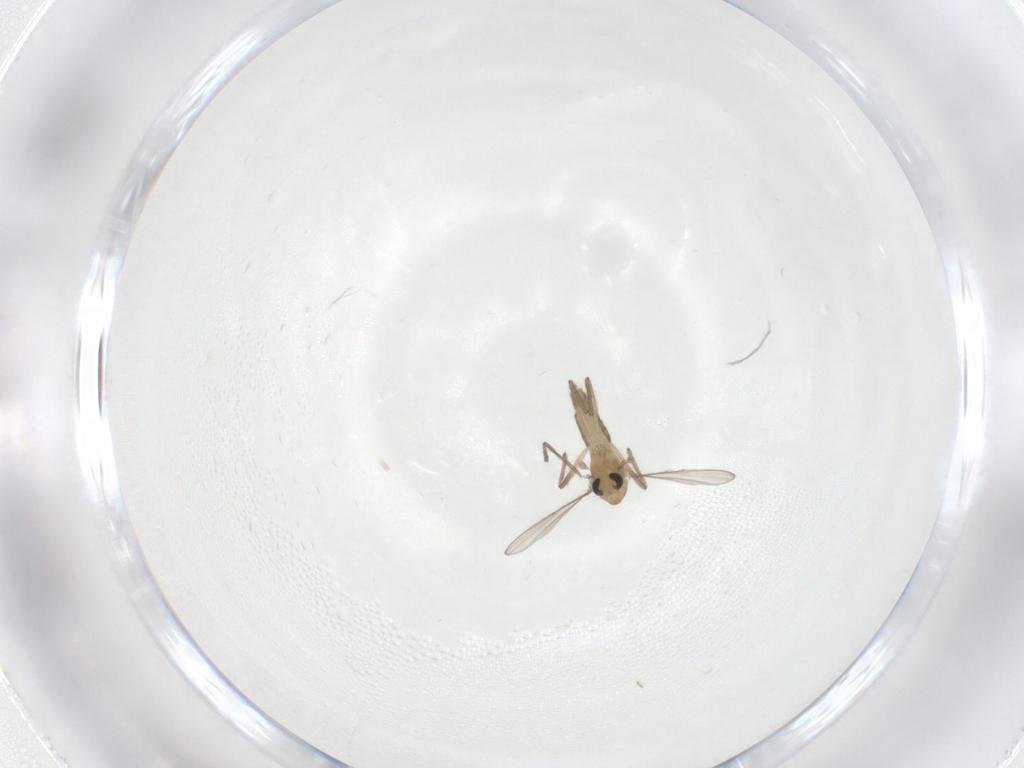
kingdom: Animalia
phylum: Arthropoda
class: Insecta
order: Diptera
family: Chironomidae
